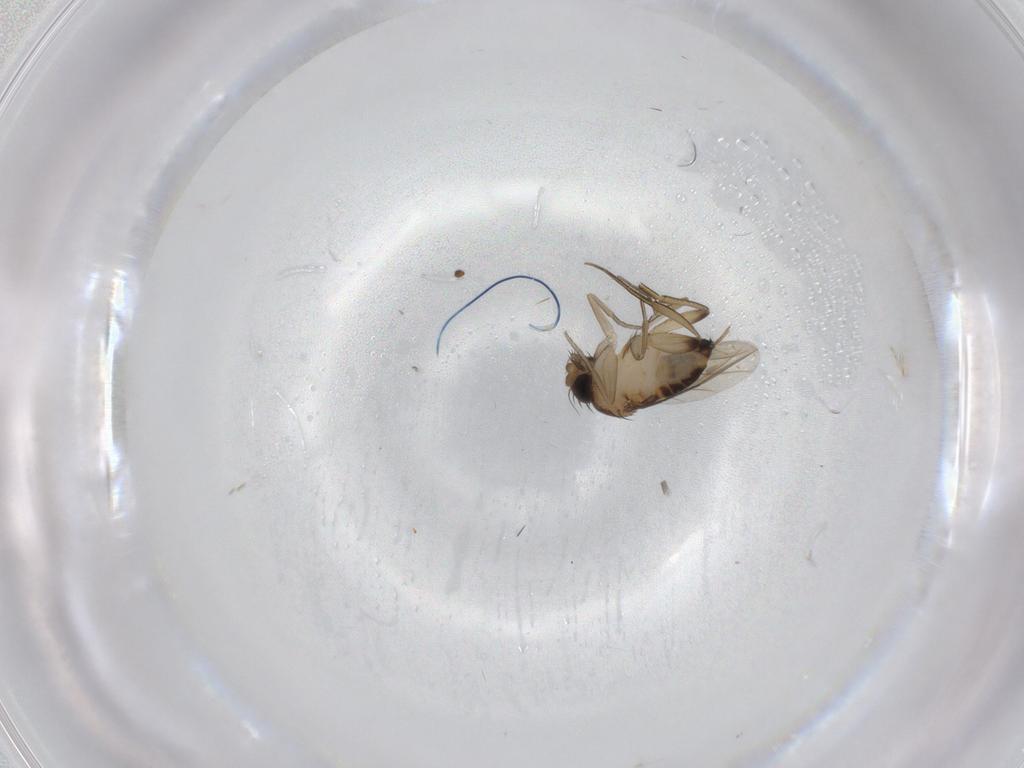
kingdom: Animalia
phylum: Arthropoda
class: Insecta
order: Diptera
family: Phoridae
